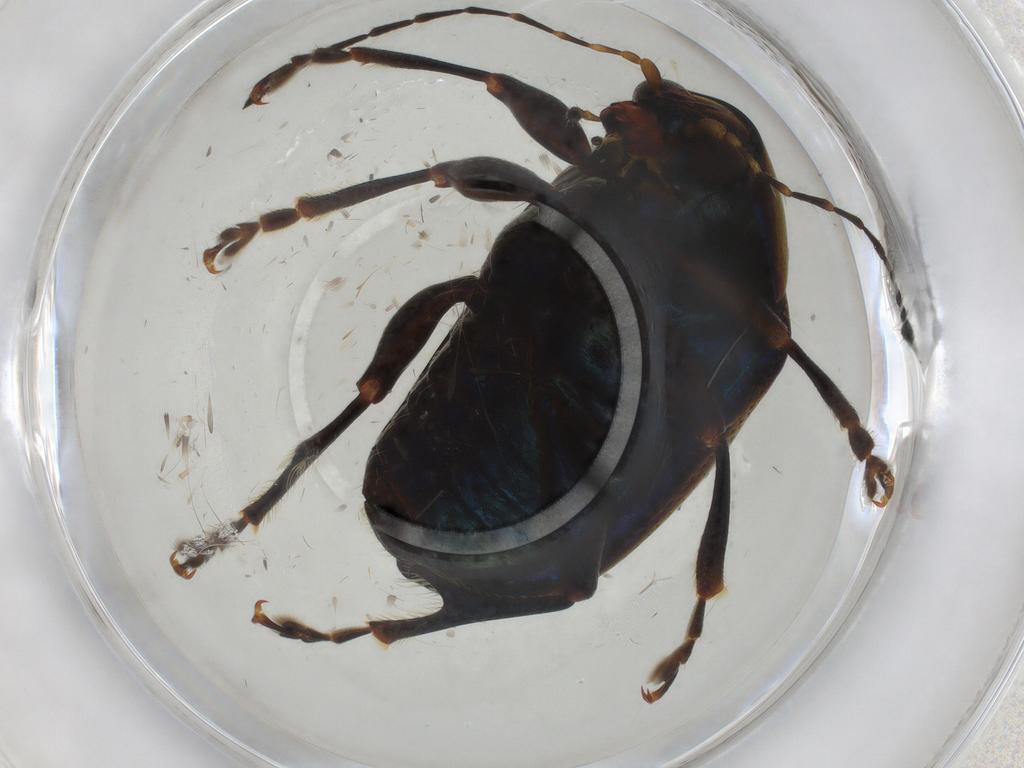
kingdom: Animalia
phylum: Arthropoda
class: Insecta
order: Coleoptera
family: Chrysomelidae
